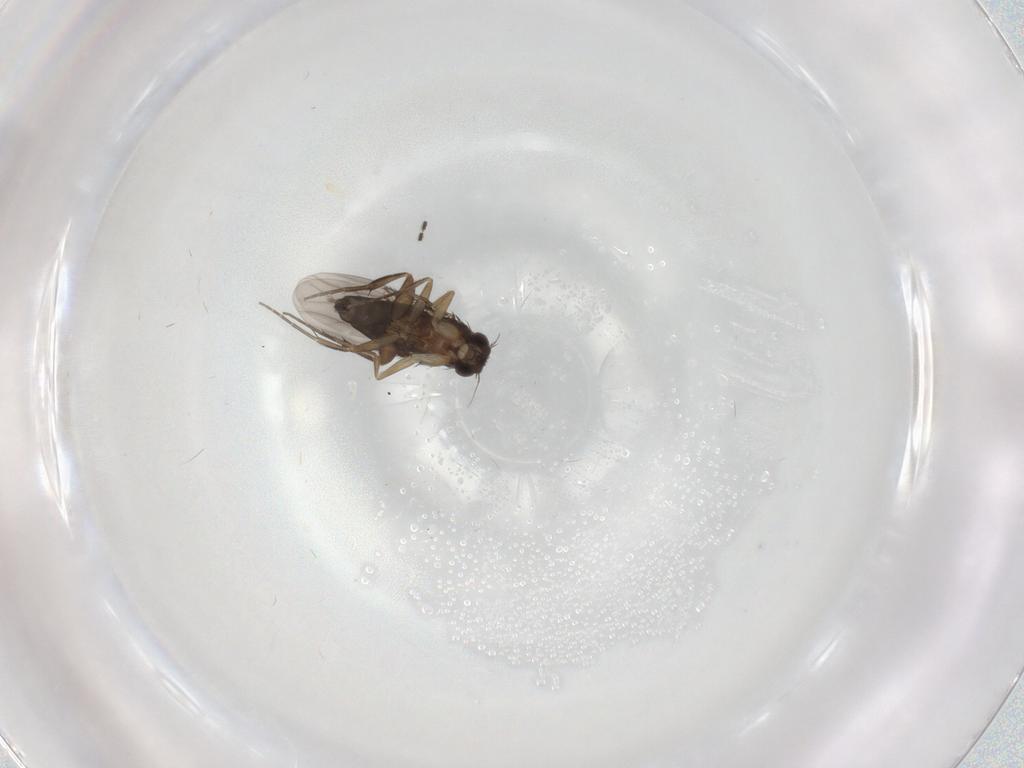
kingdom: Animalia
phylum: Arthropoda
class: Insecta
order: Diptera
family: Phoridae
